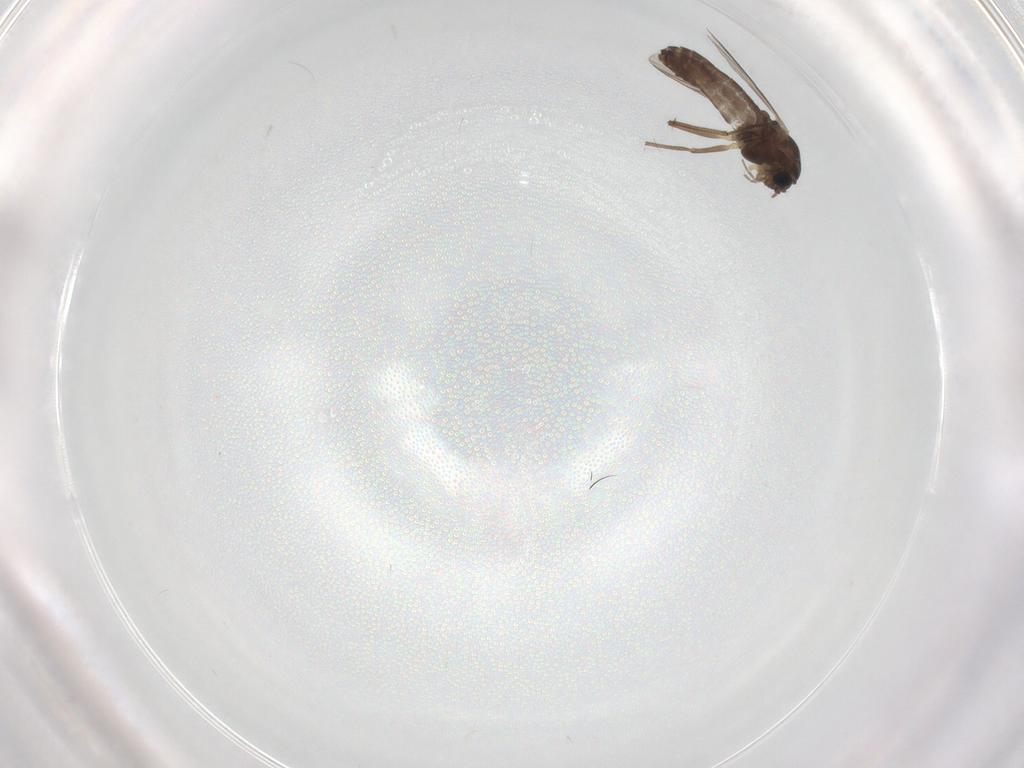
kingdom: Animalia
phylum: Arthropoda
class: Insecta
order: Diptera
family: Chironomidae
